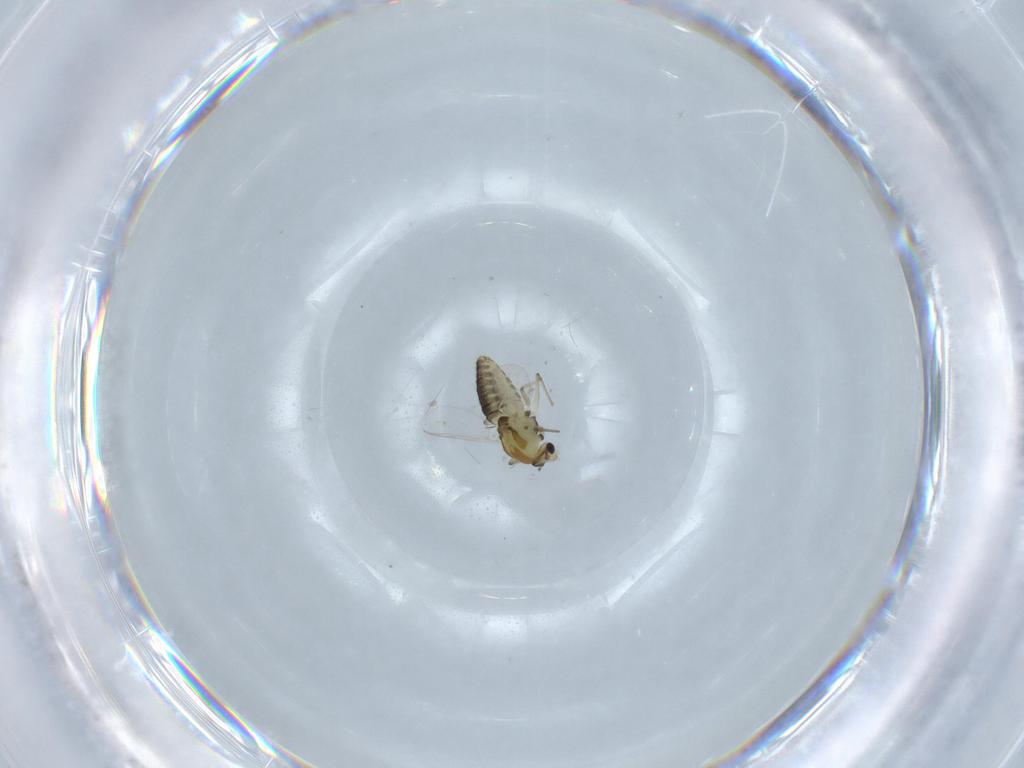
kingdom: Animalia
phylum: Arthropoda
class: Insecta
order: Diptera
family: Chironomidae
